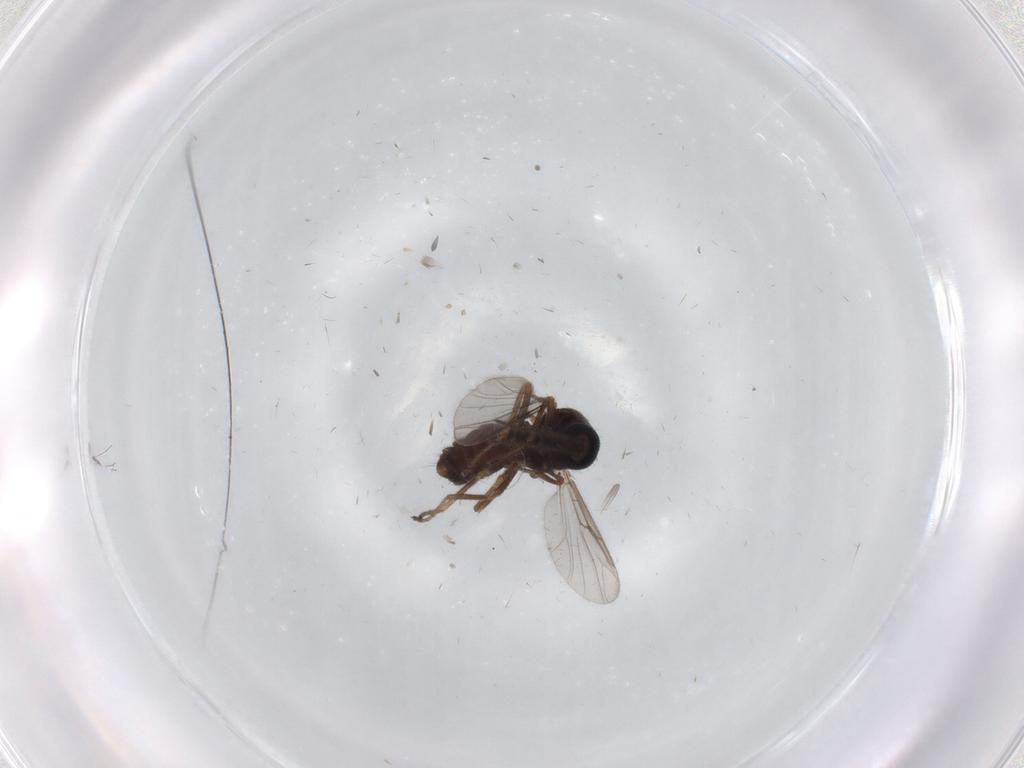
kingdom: Animalia
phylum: Arthropoda
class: Insecta
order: Diptera
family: Ceratopogonidae
